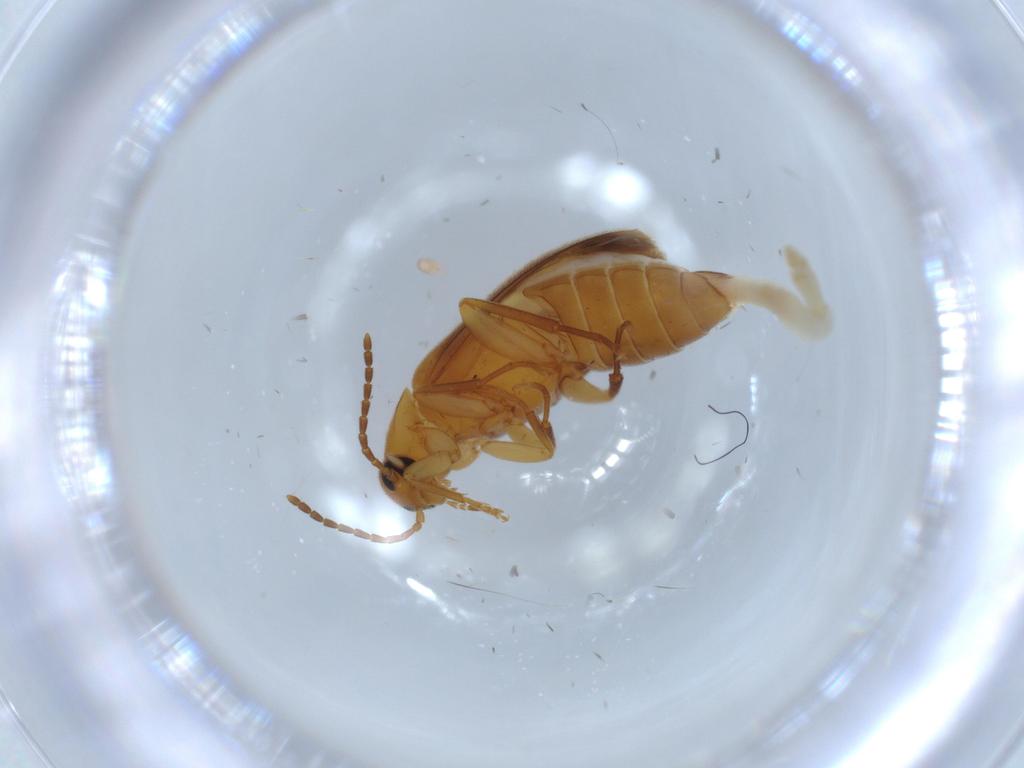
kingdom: Animalia
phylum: Arthropoda
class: Insecta
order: Coleoptera
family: Scraptiidae
